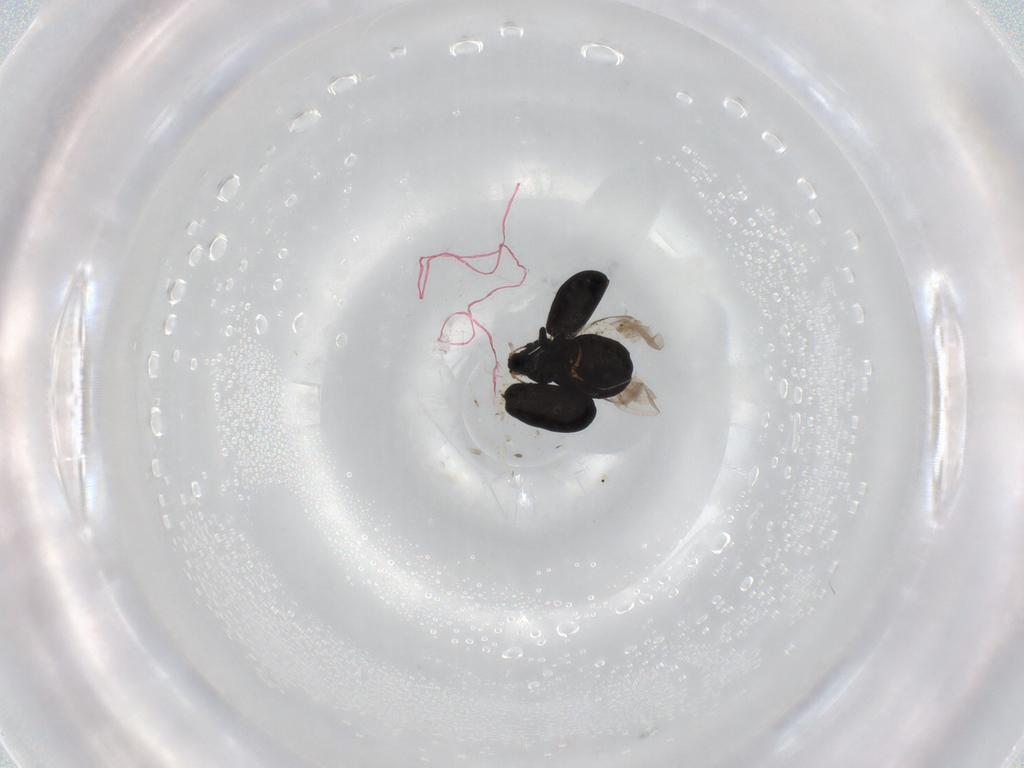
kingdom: Animalia
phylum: Arthropoda
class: Insecta
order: Coleoptera
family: Curculionidae
